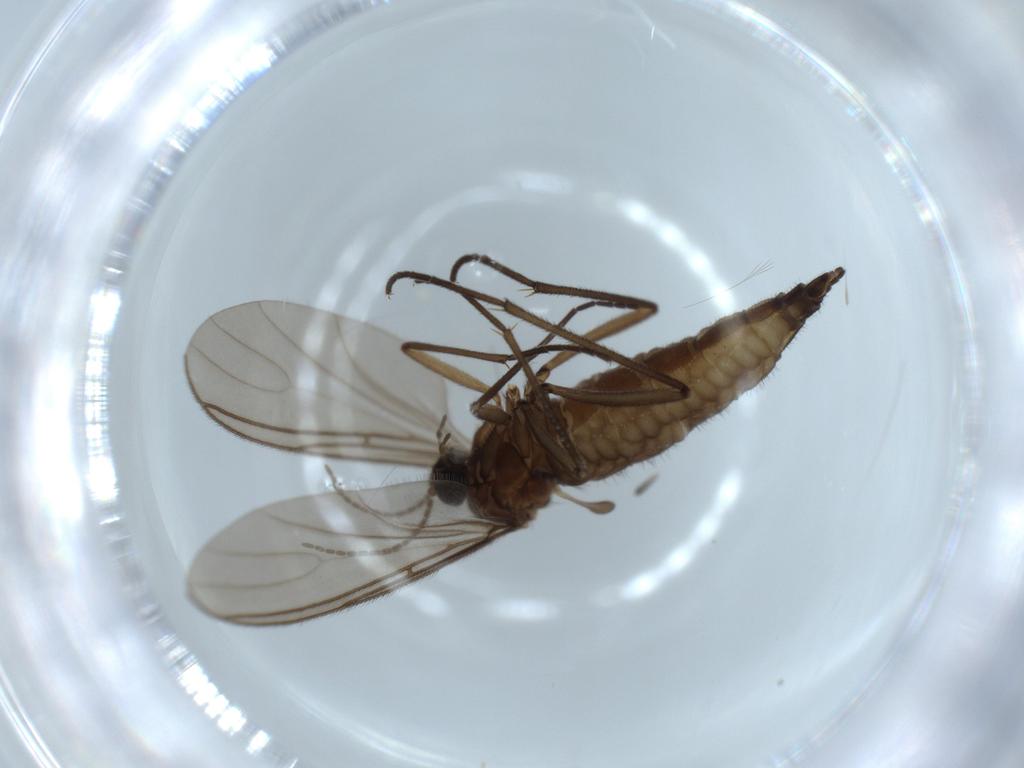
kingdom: Animalia
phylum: Arthropoda
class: Insecta
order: Diptera
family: Sciaridae
